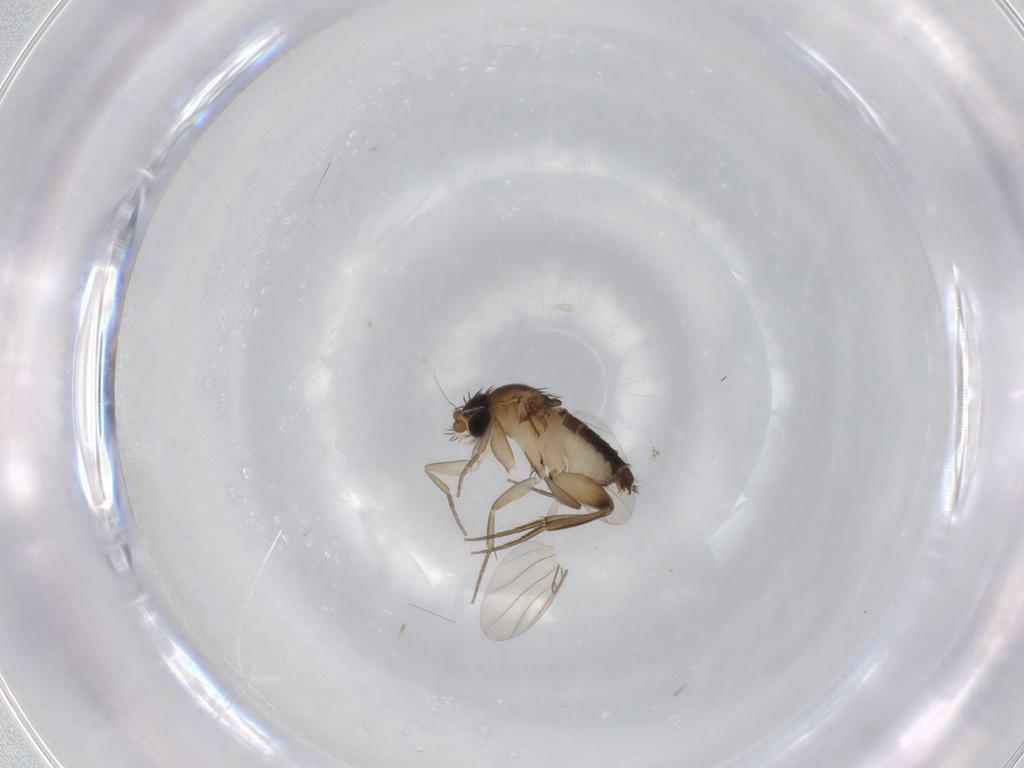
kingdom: Animalia
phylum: Arthropoda
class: Insecta
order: Diptera
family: Phoridae
